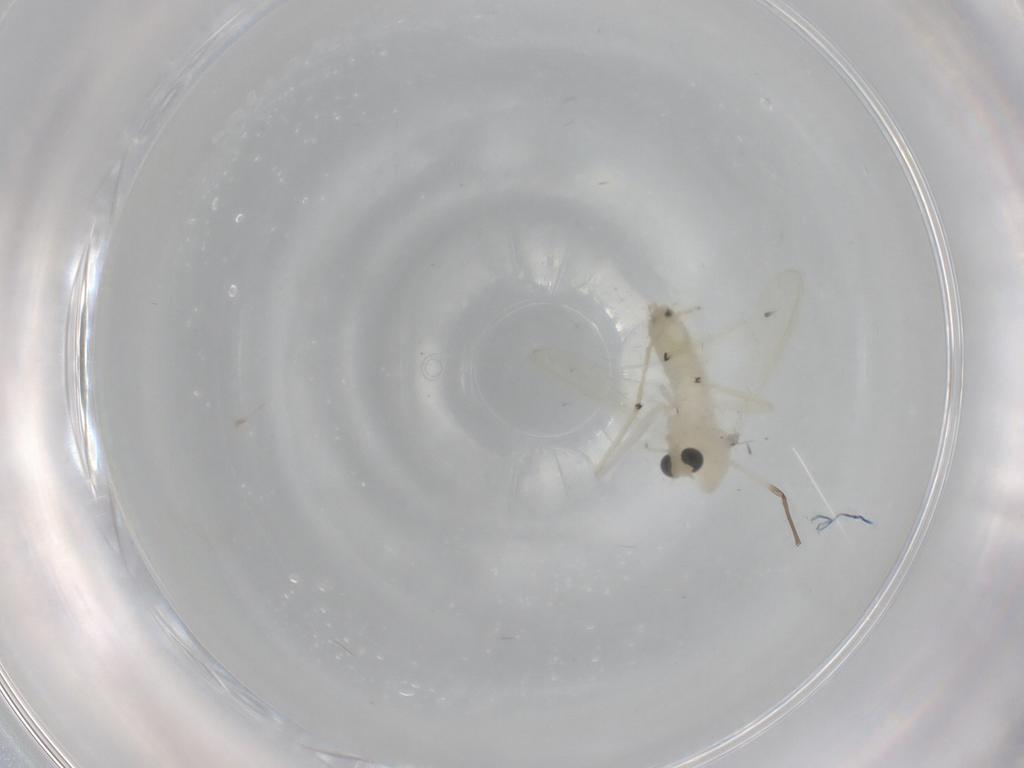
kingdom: Animalia
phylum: Arthropoda
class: Insecta
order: Diptera
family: Chironomidae
